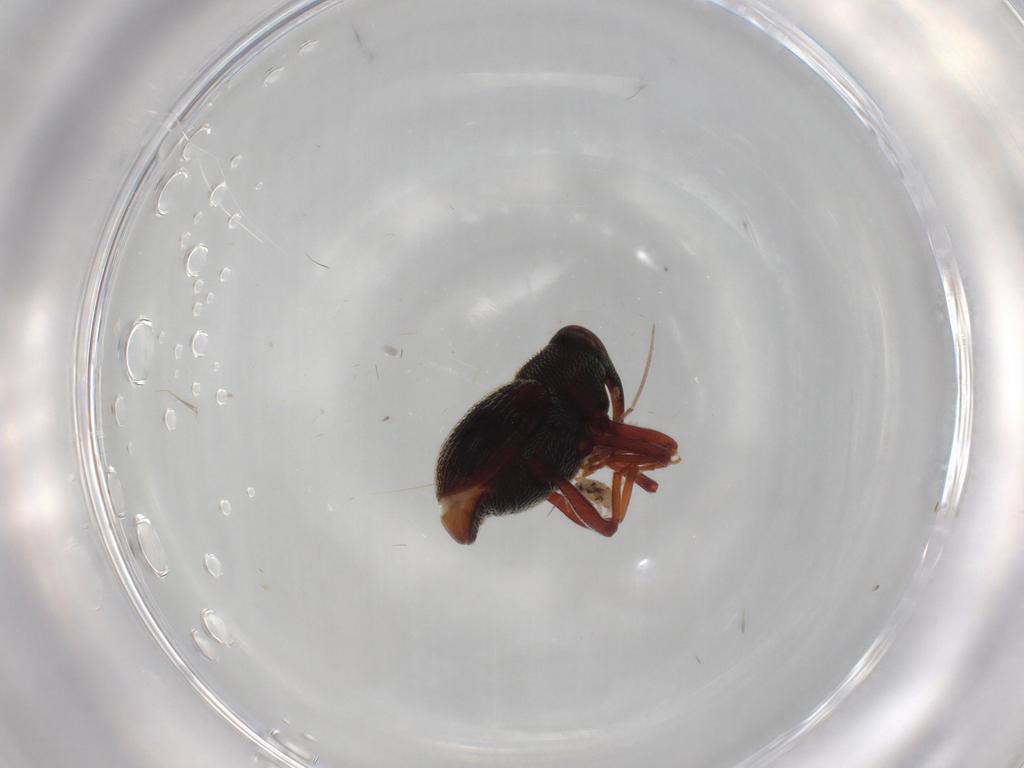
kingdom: Animalia
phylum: Arthropoda
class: Insecta
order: Coleoptera
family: Curculionidae
